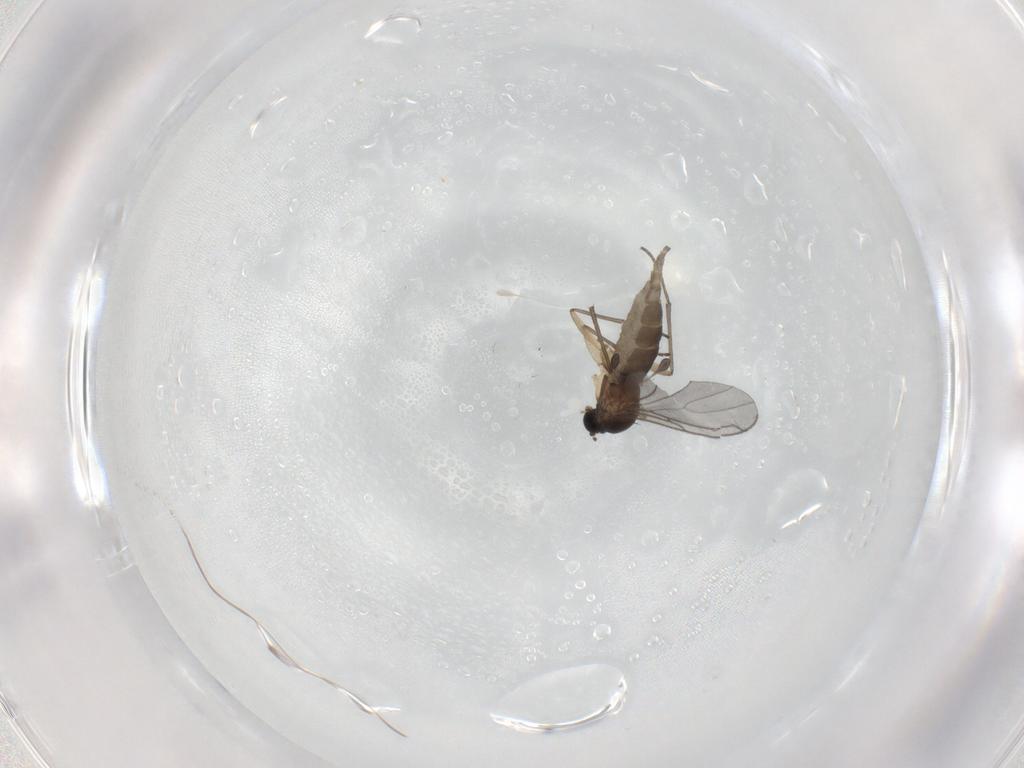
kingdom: Animalia
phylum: Arthropoda
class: Insecta
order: Diptera
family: Sciaridae
